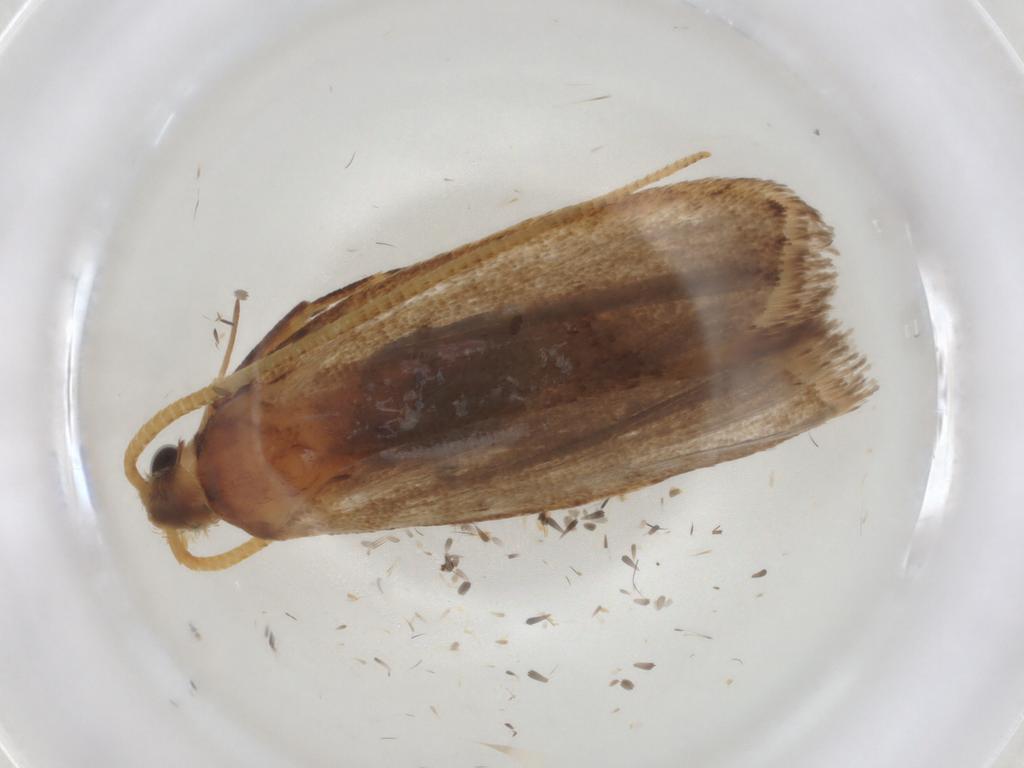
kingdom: Animalia
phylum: Arthropoda
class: Insecta
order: Lepidoptera
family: Lecithoceridae
